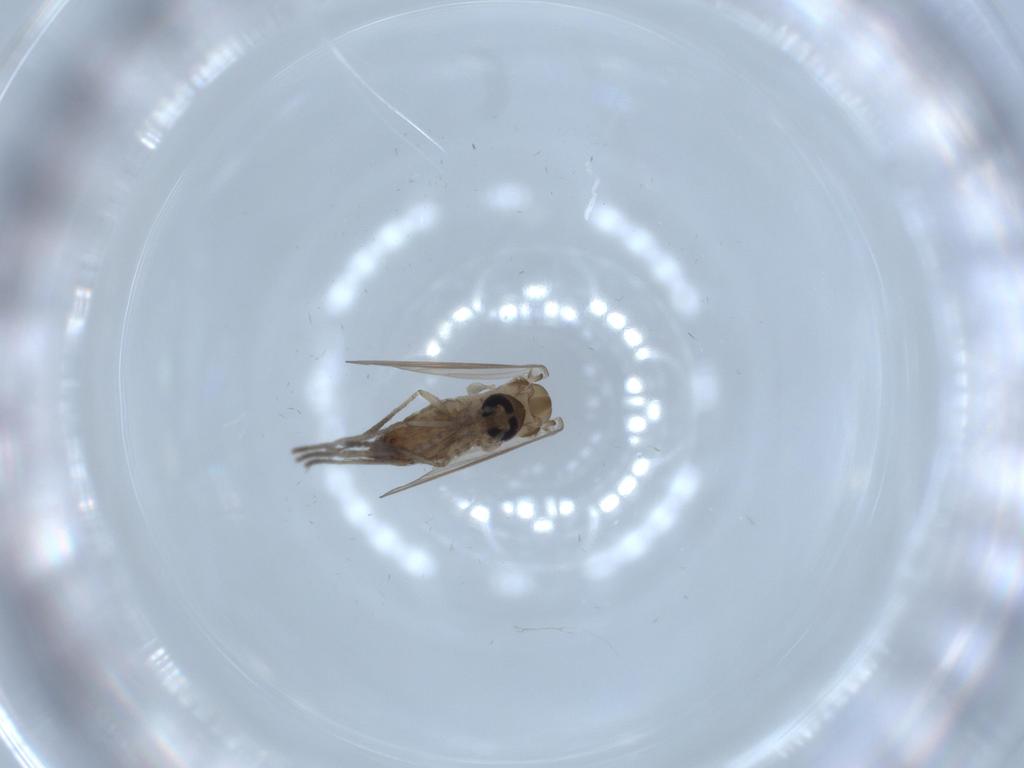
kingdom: Animalia
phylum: Arthropoda
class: Insecta
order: Diptera
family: Psychodidae
